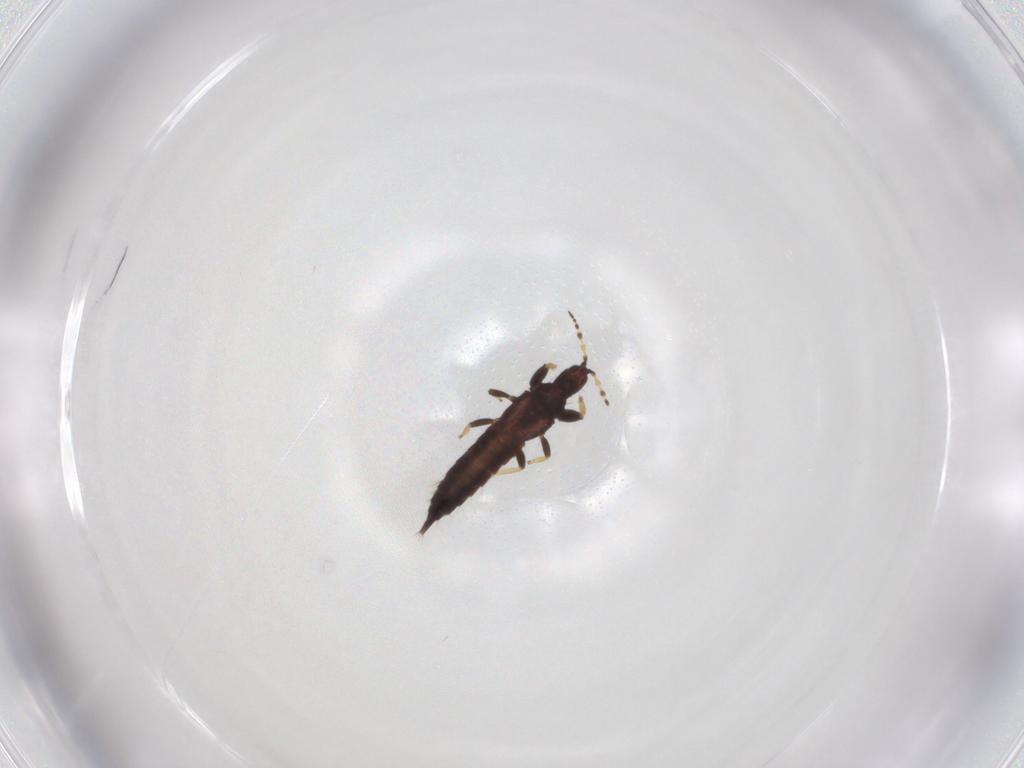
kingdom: Animalia
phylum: Arthropoda
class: Insecta
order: Thysanoptera
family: Phlaeothripidae
